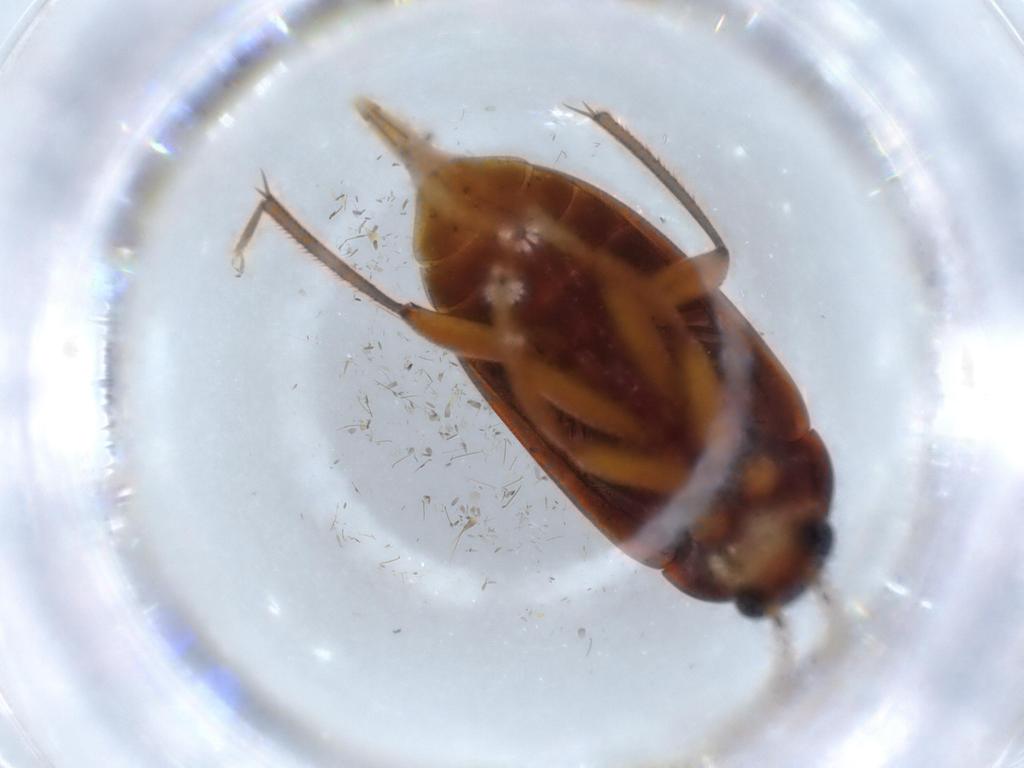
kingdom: Animalia
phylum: Arthropoda
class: Insecta
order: Coleoptera
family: Ptilodactylidae
